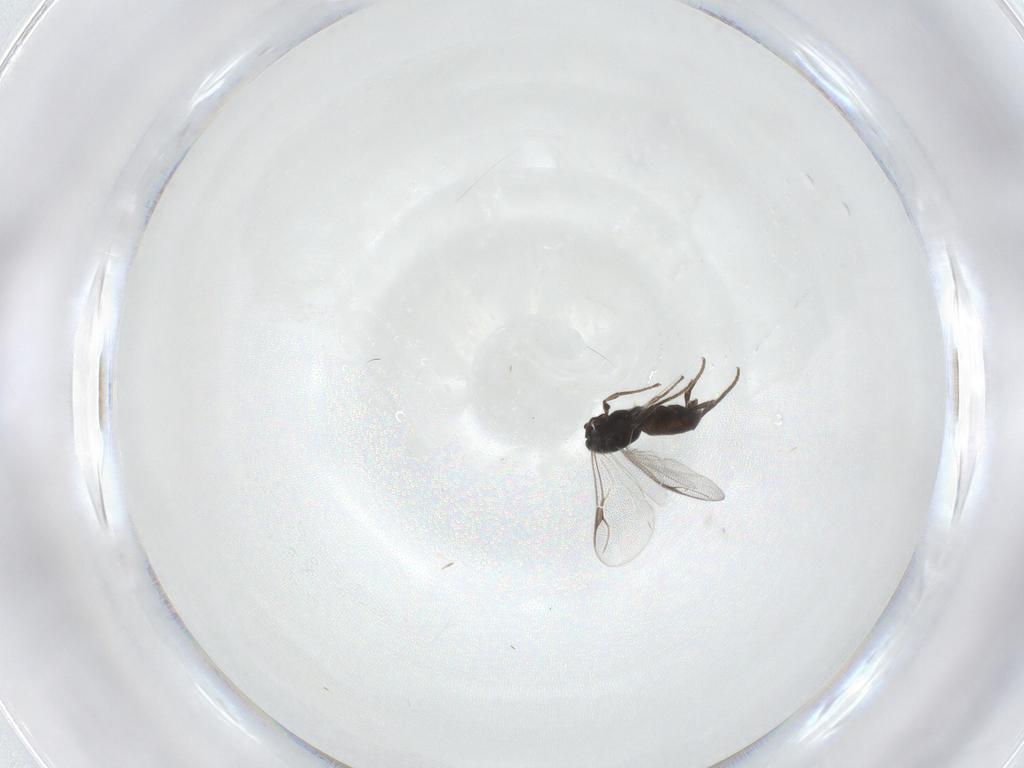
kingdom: Animalia
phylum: Arthropoda
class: Insecta
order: Hymenoptera
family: Dryinidae
